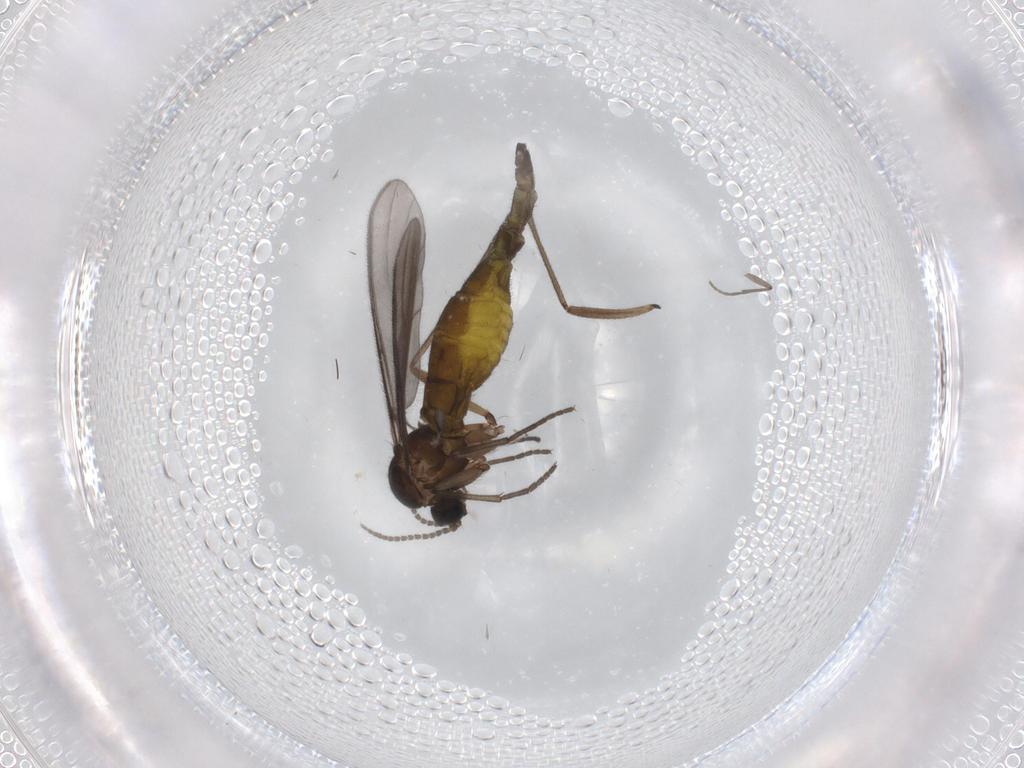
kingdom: Animalia
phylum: Arthropoda
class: Insecta
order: Diptera
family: Sciaridae
